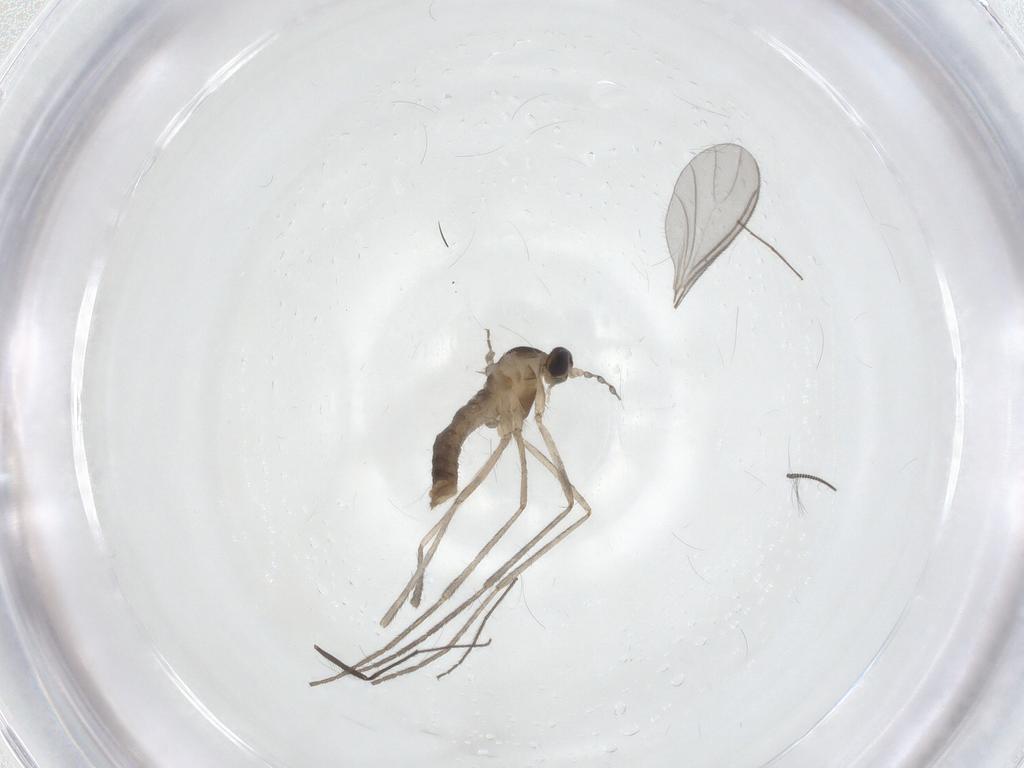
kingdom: Animalia
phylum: Arthropoda
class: Insecta
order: Diptera
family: Cecidomyiidae
